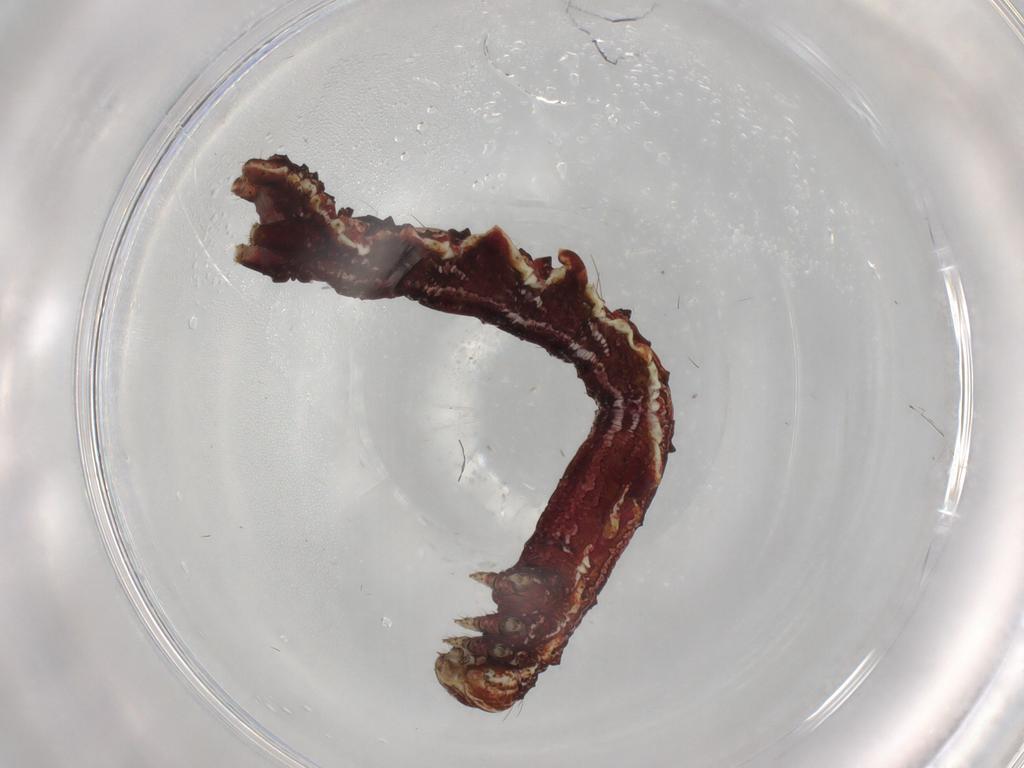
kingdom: Animalia
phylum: Arthropoda
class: Insecta
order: Lepidoptera
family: Geometridae
